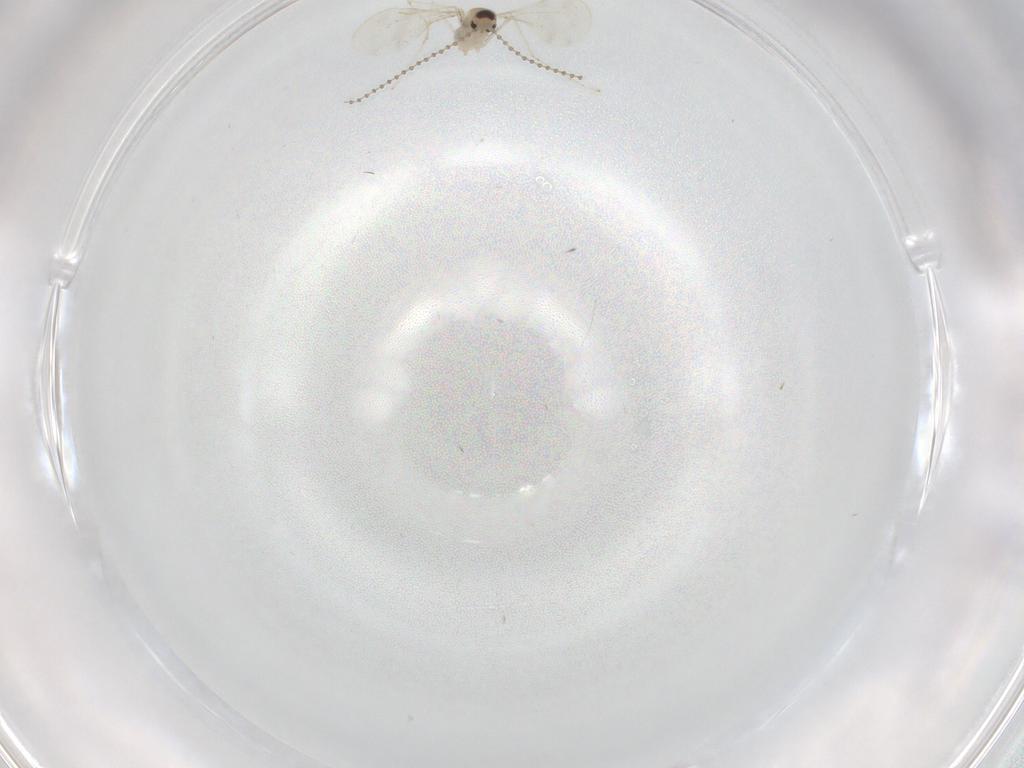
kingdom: Animalia
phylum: Arthropoda
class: Insecta
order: Diptera
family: Cecidomyiidae
